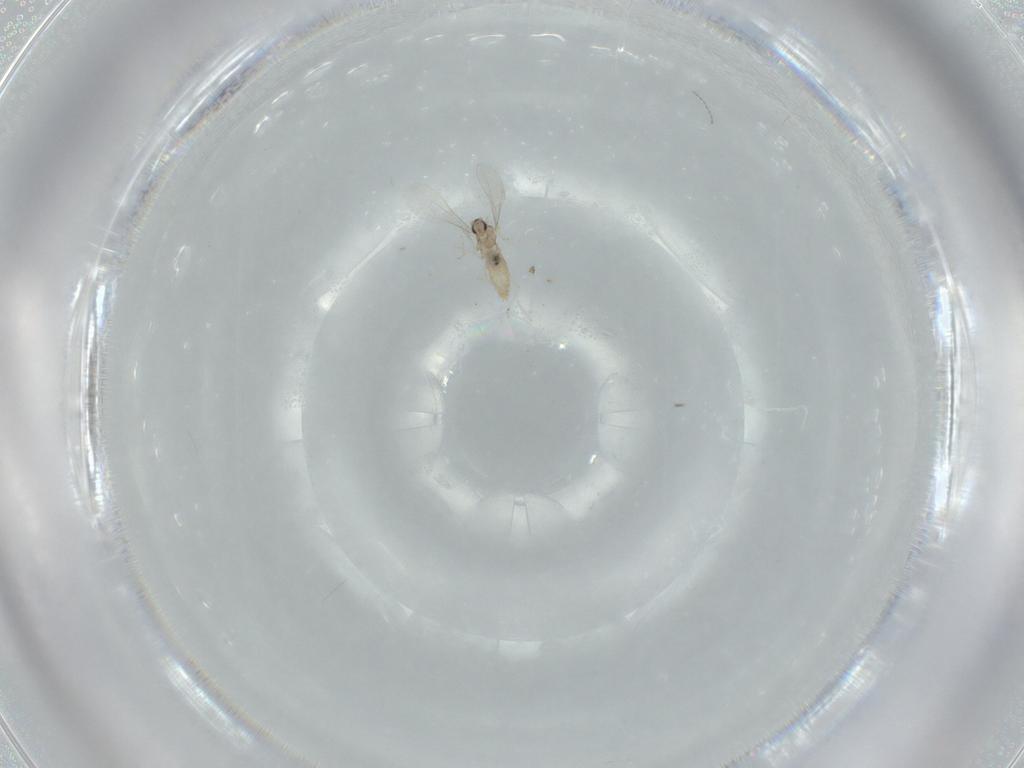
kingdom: Animalia
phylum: Arthropoda
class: Insecta
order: Diptera
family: Cecidomyiidae
